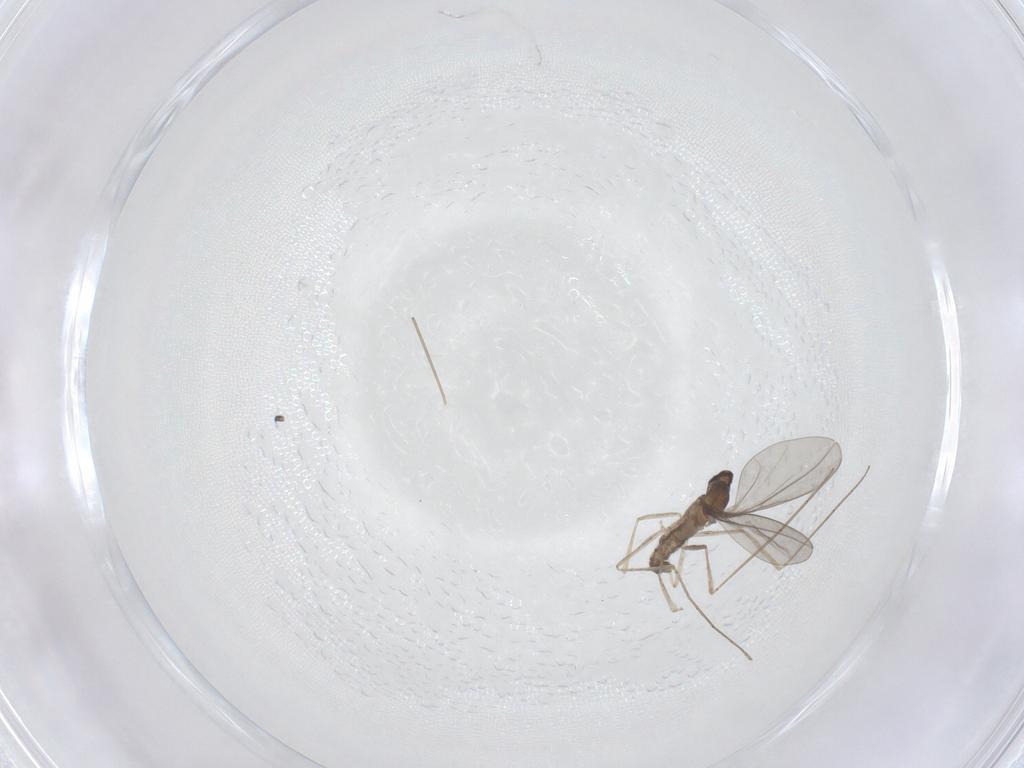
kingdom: Animalia
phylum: Arthropoda
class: Insecta
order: Diptera
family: Cecidomyiidae
